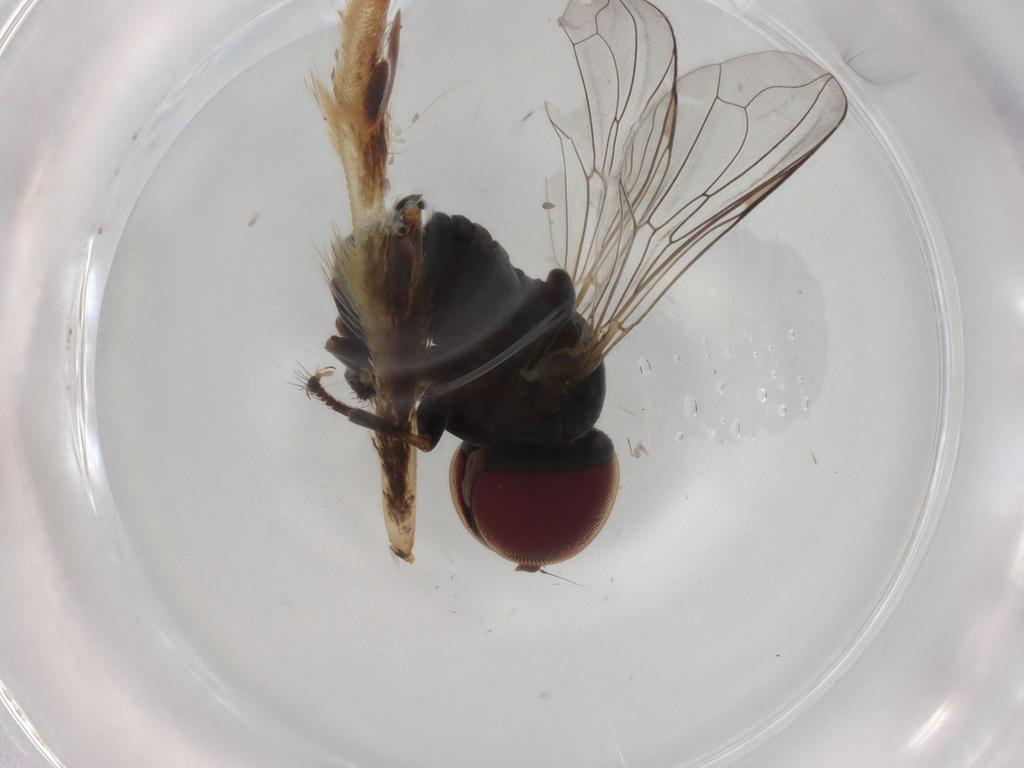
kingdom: Animalia
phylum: Arthropoda
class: Insecta
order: Diptera
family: Pipunculidae
